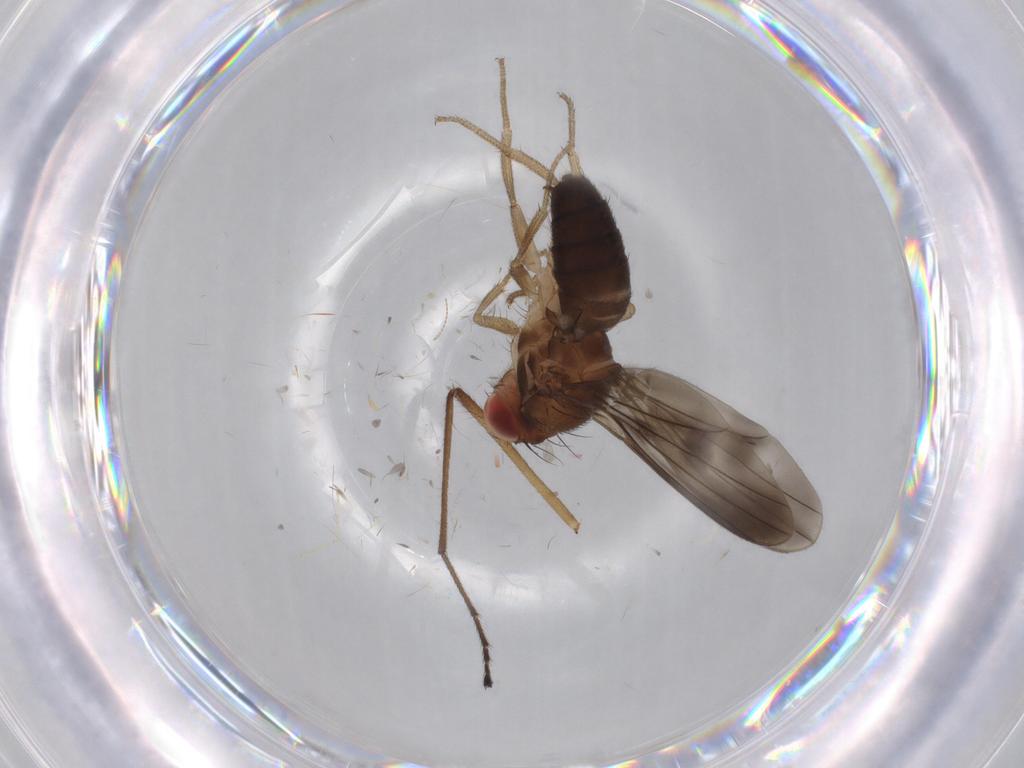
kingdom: Animalia
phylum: Arthropoda
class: Insecta
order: Diptera
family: Drosophilidae
